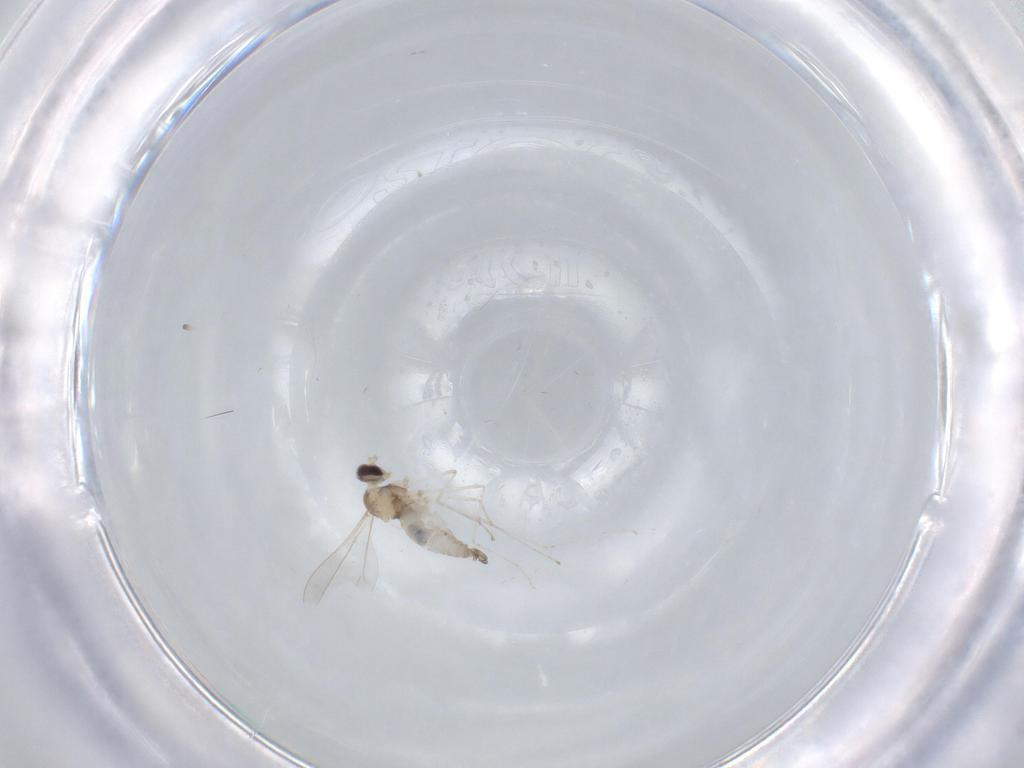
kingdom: Animalia
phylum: Arthropoda
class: Insecta
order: Diptera
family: Cecidomyiidae
